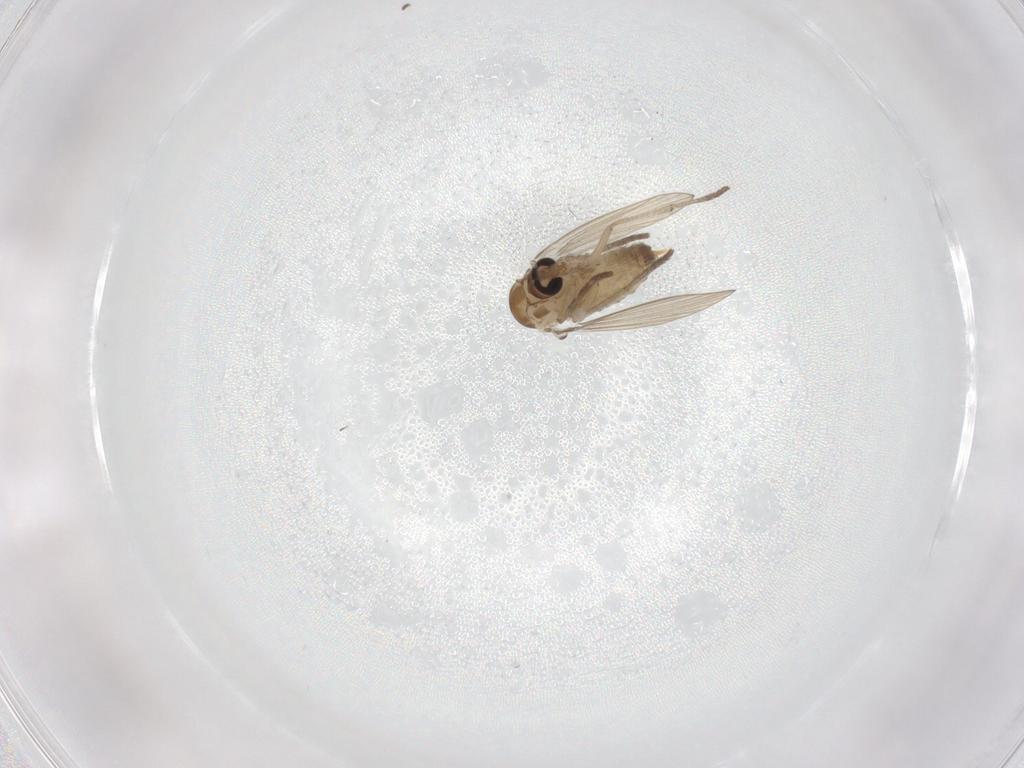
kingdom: Animalia
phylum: Arthropoda
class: Insecta
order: Diptera
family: Psychodidae
